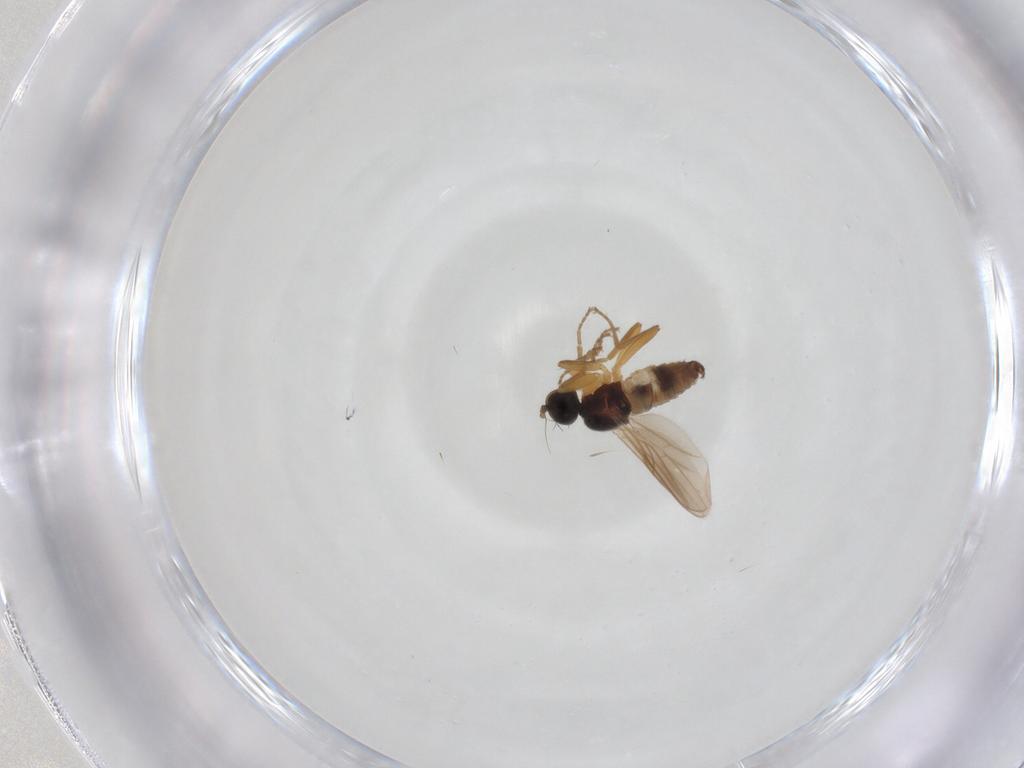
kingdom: Animalia
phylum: Arthropoda
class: Insecta
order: Diptera
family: Hybotidae
